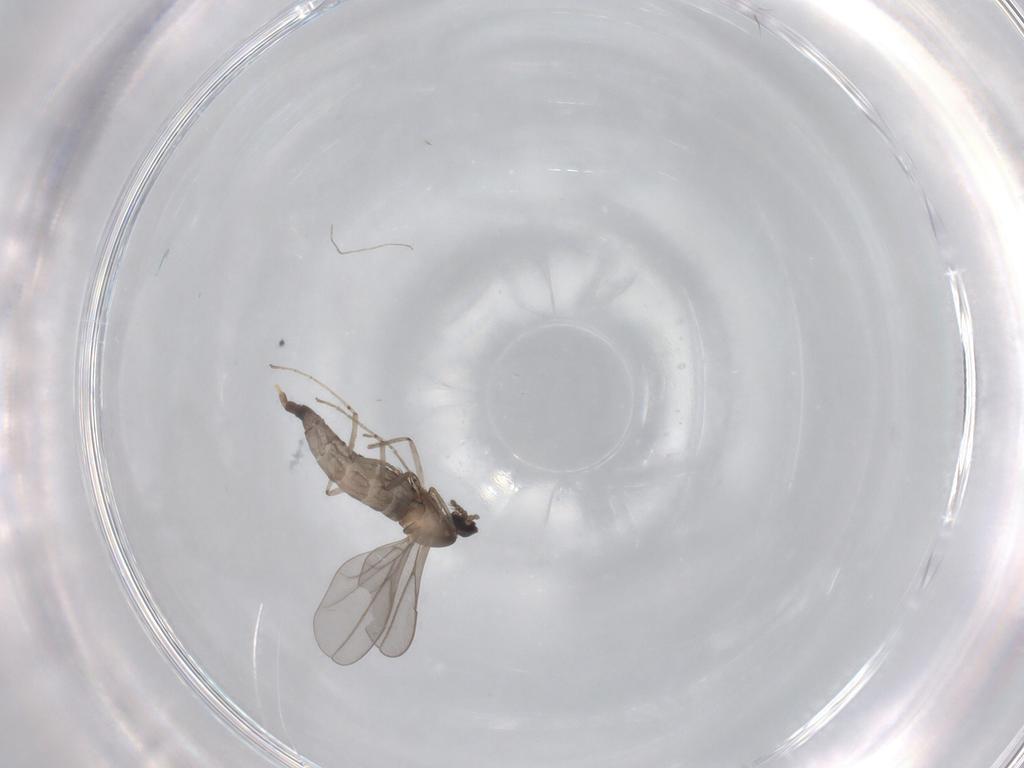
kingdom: Animalia
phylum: Arthropoda
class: Insecta
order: Diptera
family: Cecidomyiidae
